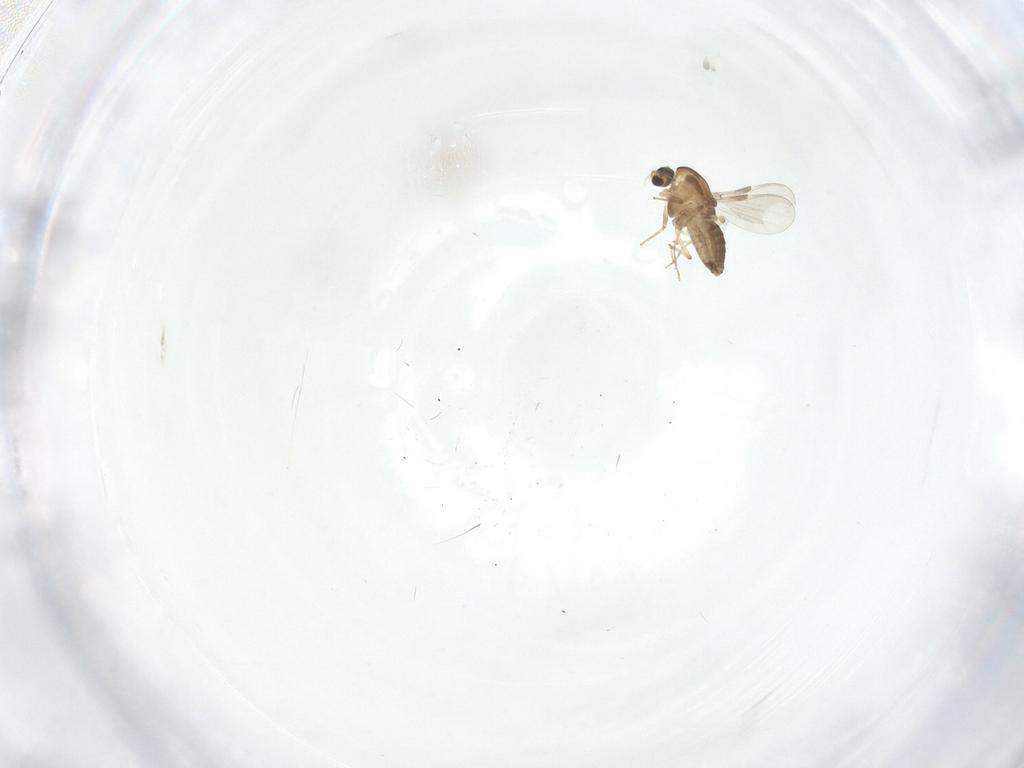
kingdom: Animalia
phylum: Arthropoda
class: Insecta
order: Diptera
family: Chironomidae
